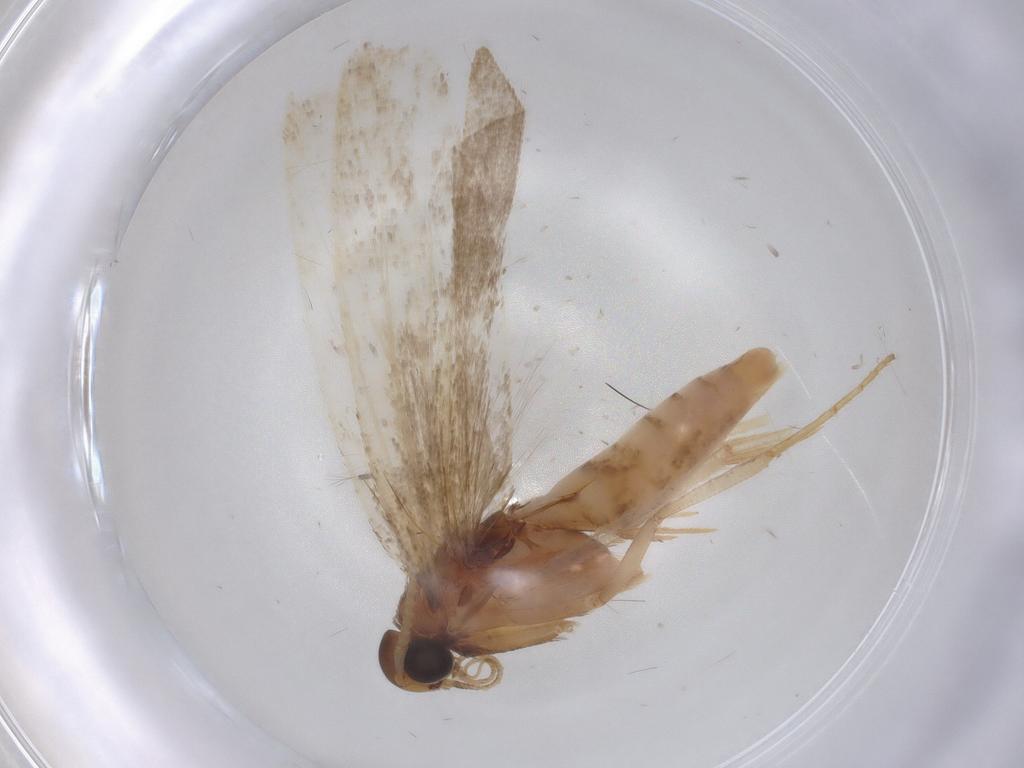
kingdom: Animalia
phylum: Arthropoda
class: Insecta
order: Lepidoptera
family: Gelechiidae
